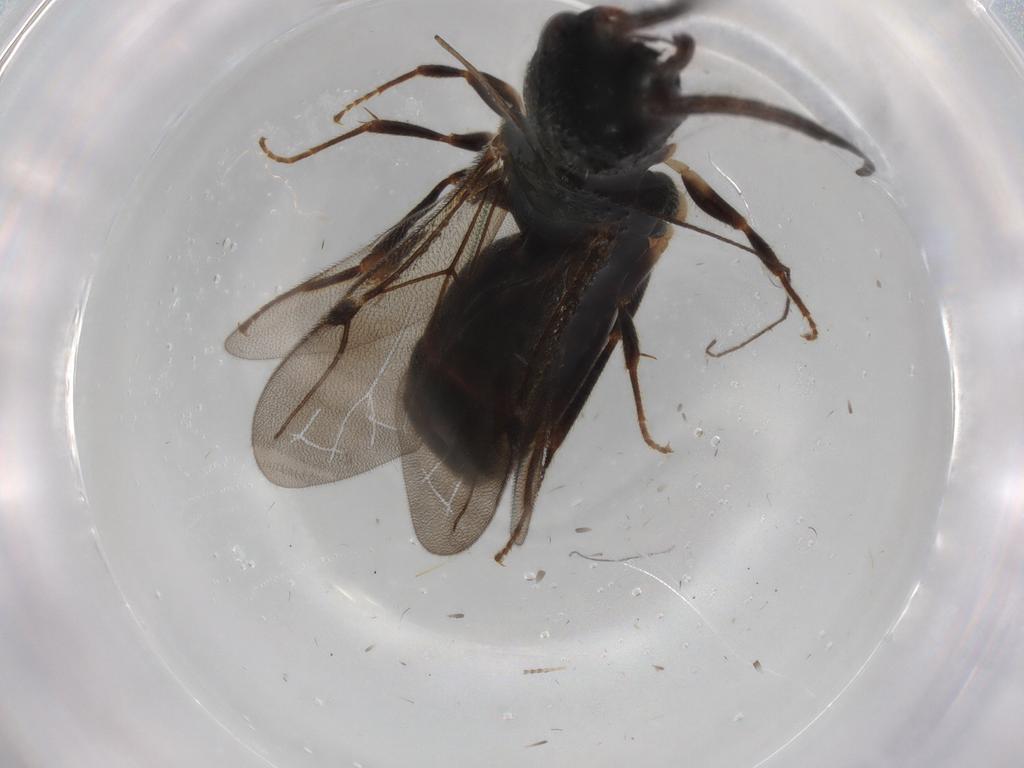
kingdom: Animalia
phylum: Arthropoda
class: Insecta
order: Hymenoptera
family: Bethylidae
